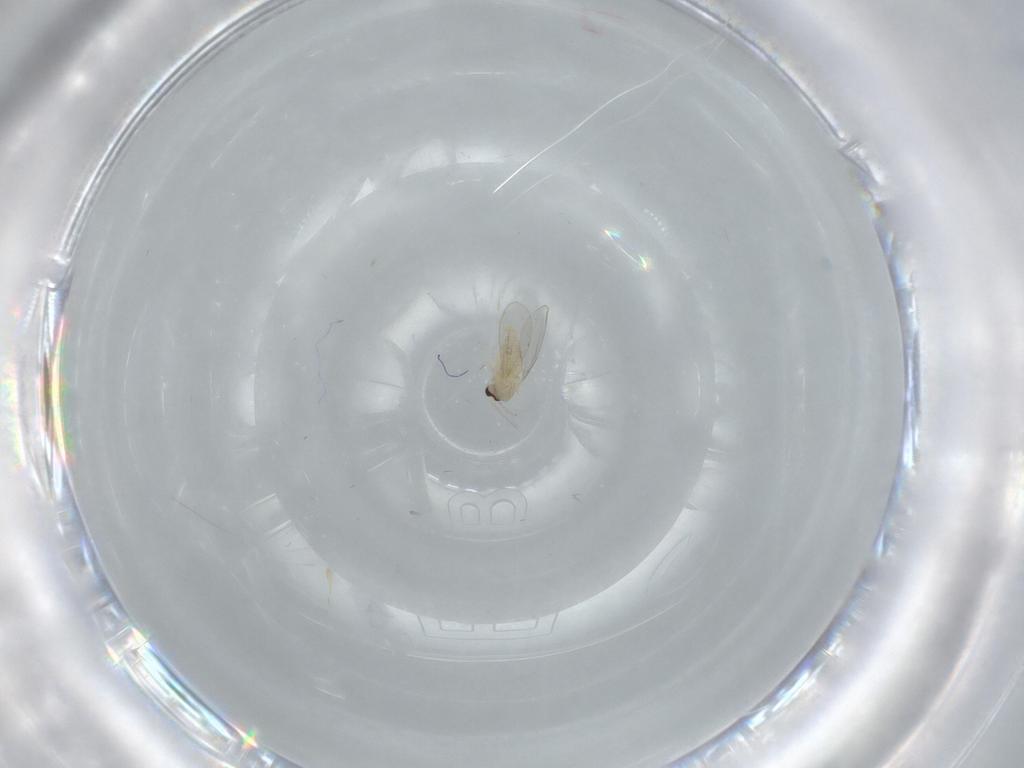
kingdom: Animalia
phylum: Arthropoda
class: Insecta
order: Diptera
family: Cecidomyiidae
